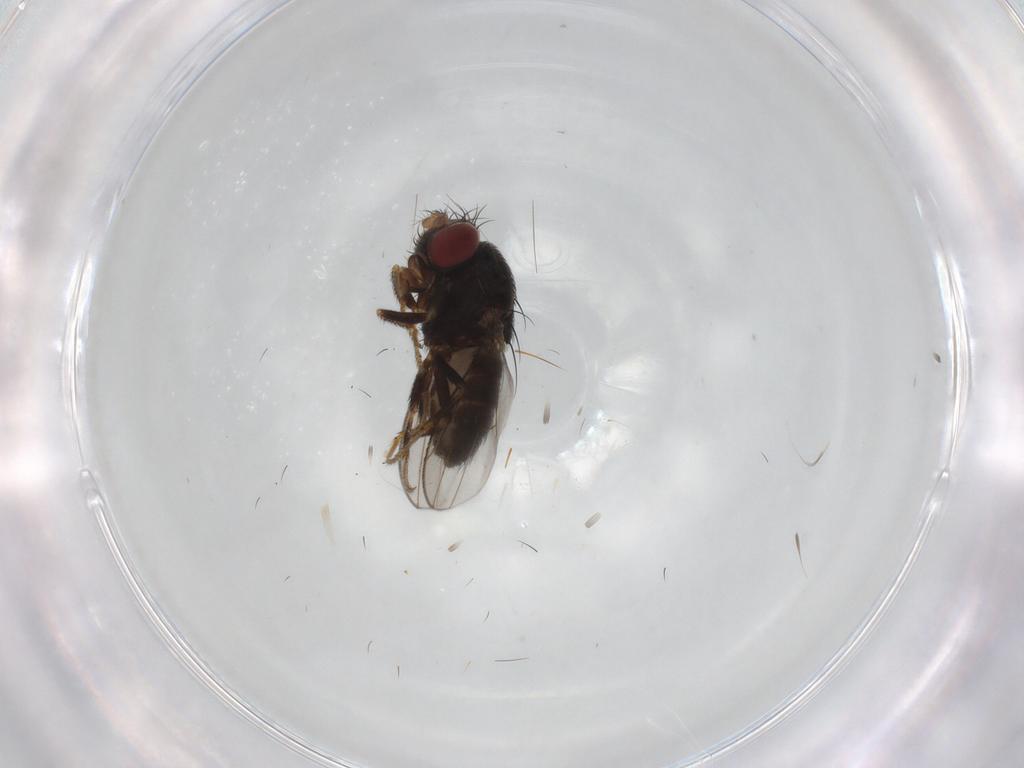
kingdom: Animalia
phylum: Arthropoda
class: Insecta
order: Diptera
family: Ephydridae
